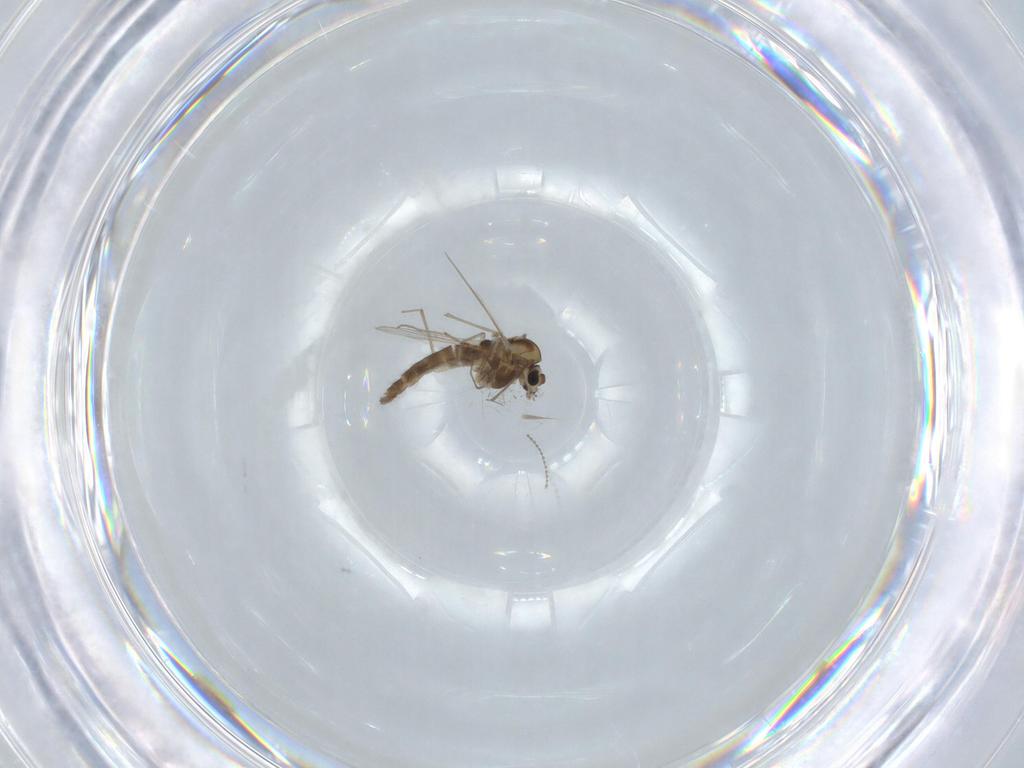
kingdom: Animalia
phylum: Arthropoda
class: Insecta
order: Diptera
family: Chironomidae
